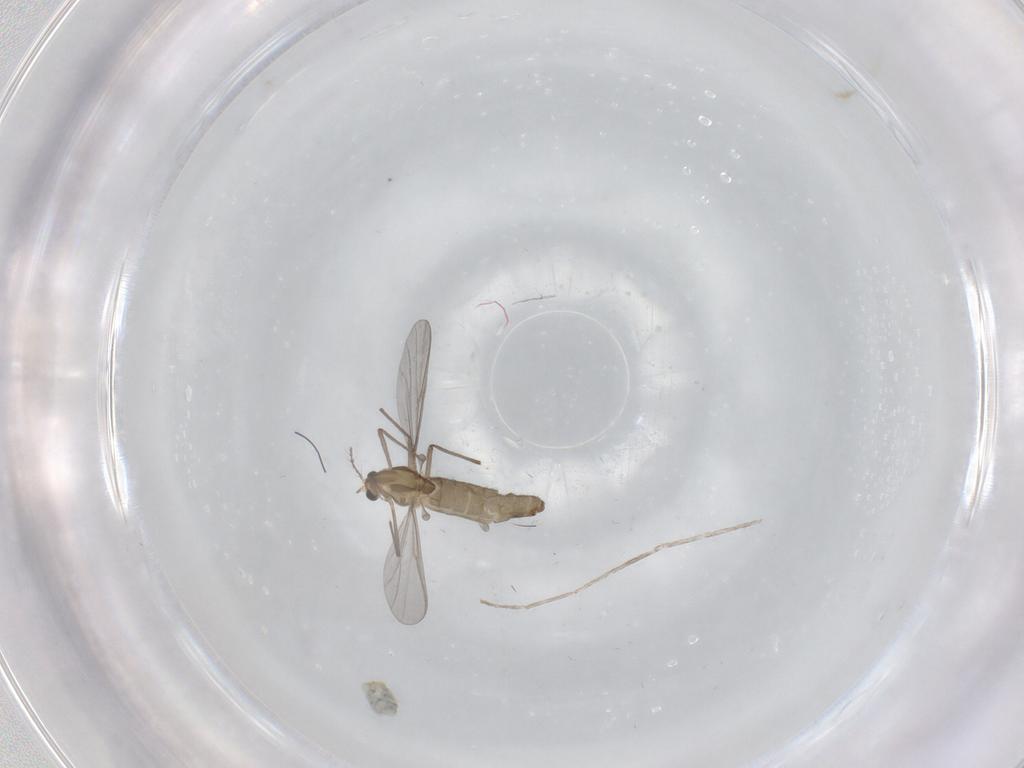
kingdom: Animalia
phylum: Arthropoda
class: Insecta
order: Diptera
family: Cecidomyiidae
